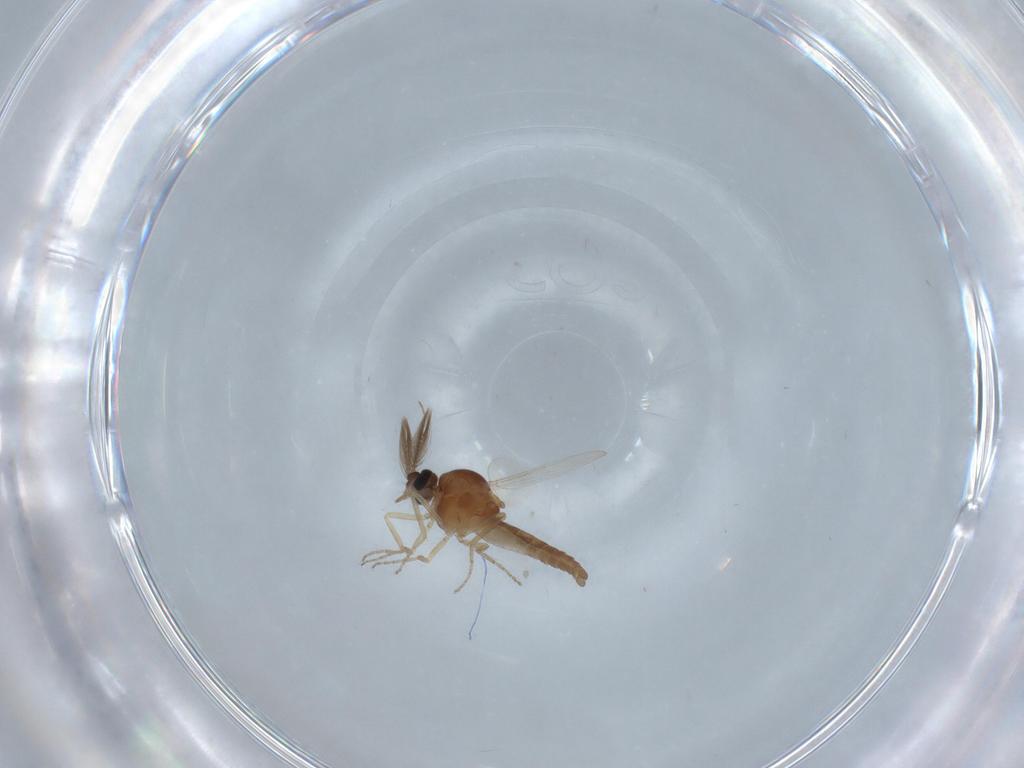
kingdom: Animalia
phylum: Arthropoda
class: Insecta
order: Diptera
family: Ceratopogonidae
